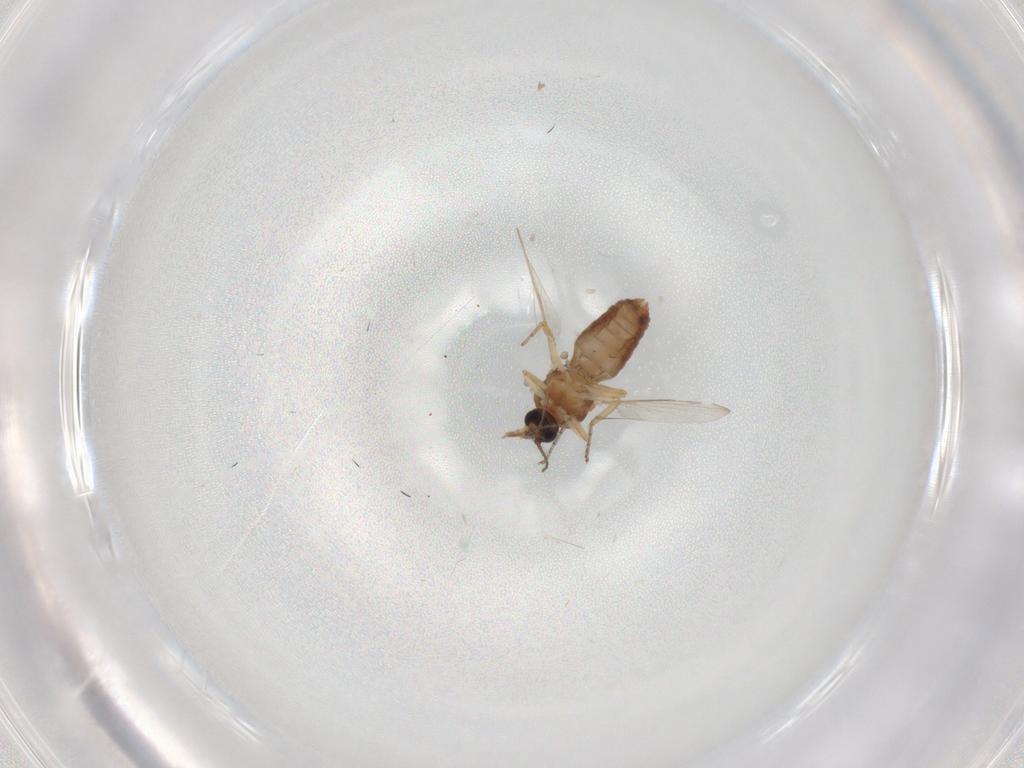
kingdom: Animalia
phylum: Arthropoda
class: Insecta
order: Diptera
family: Ceratopogonidae
